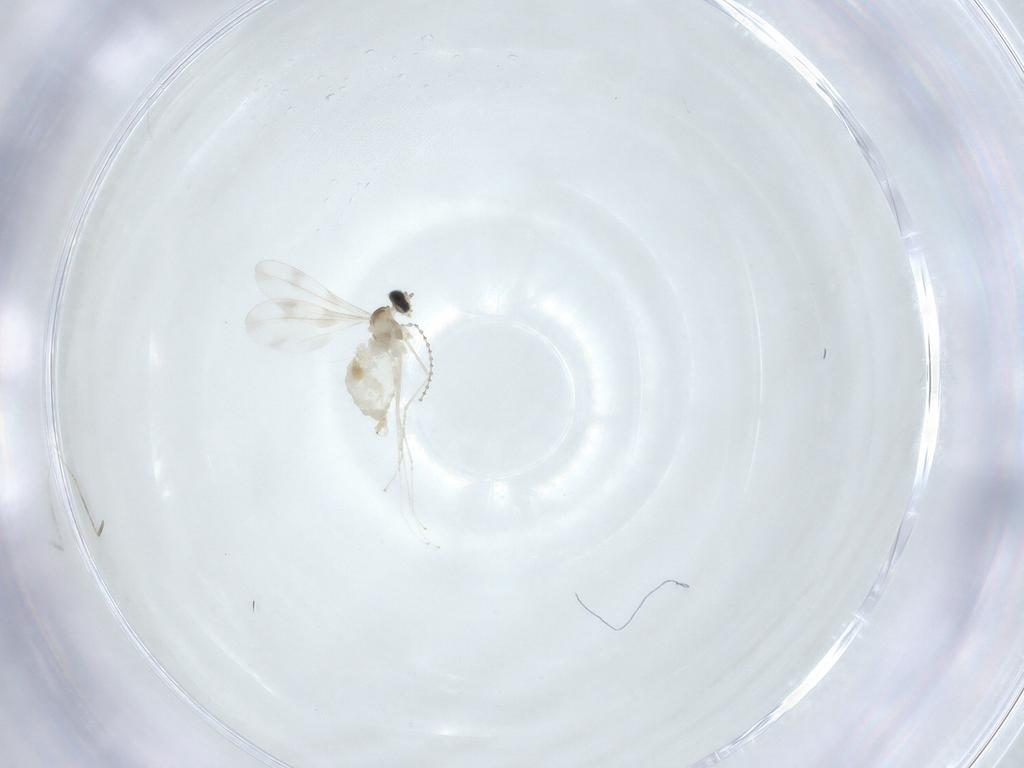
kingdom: Animalia
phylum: Arthropoda
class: Insecta
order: Diptera
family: Cecidomyiidae
